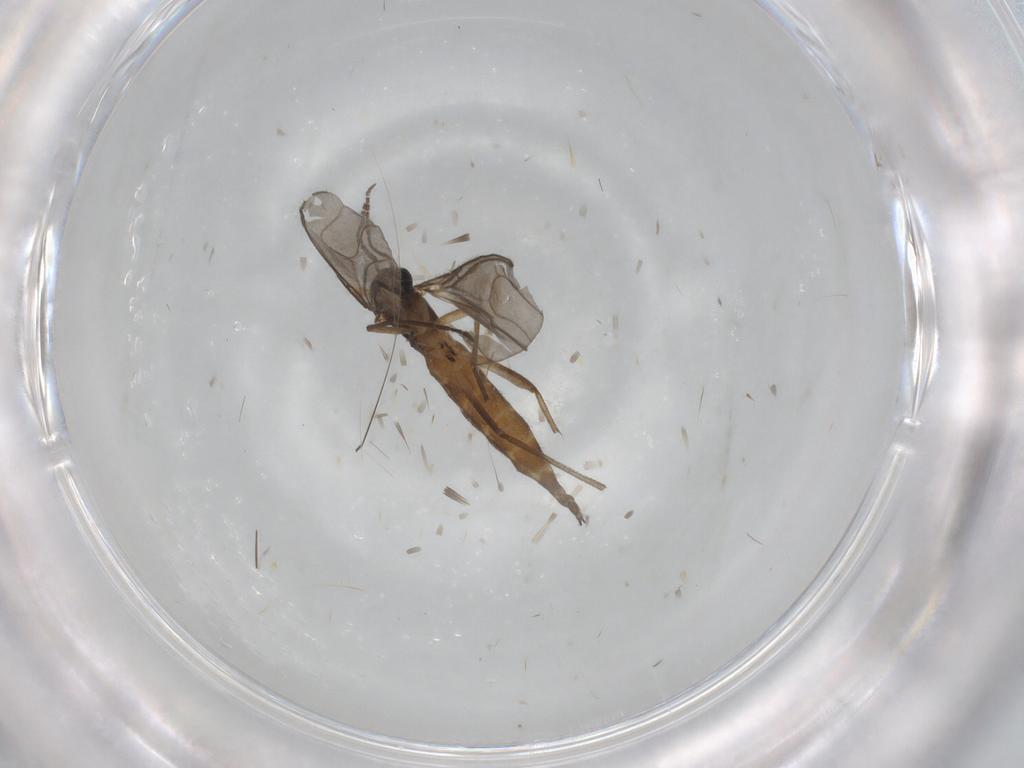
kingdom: Animalia
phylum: Arthropoda
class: Insecta
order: Diptera
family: Sciaridae
